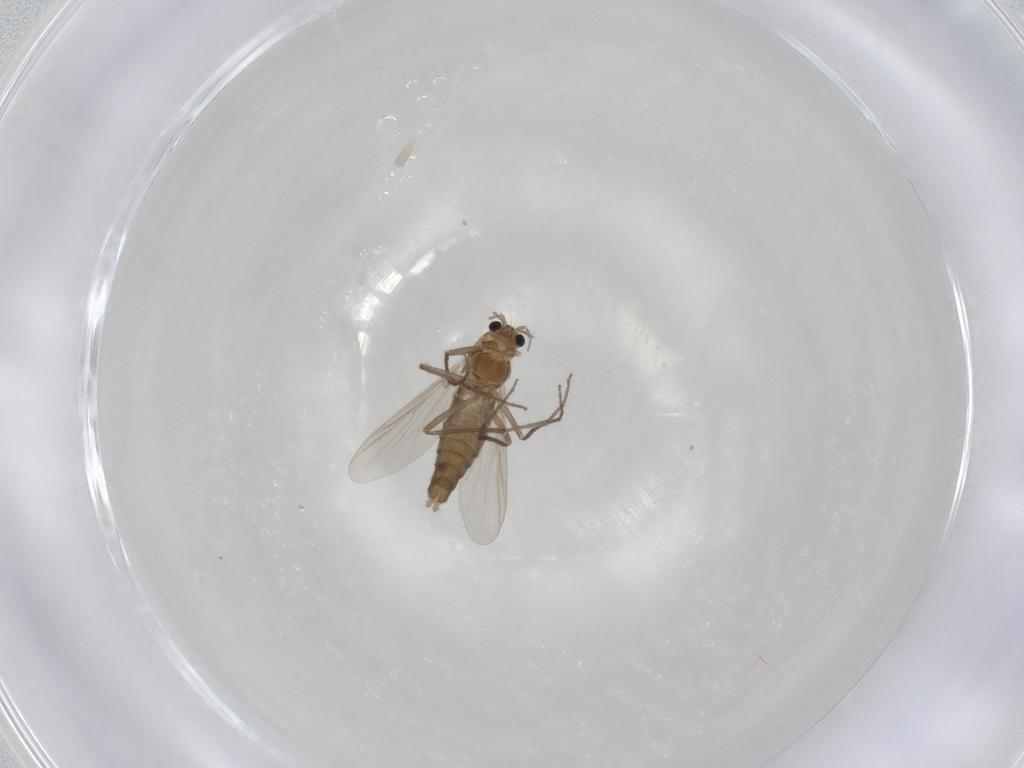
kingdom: Animalia
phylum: Arthropoda
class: Insecta
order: Diptera
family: Chironomidae
